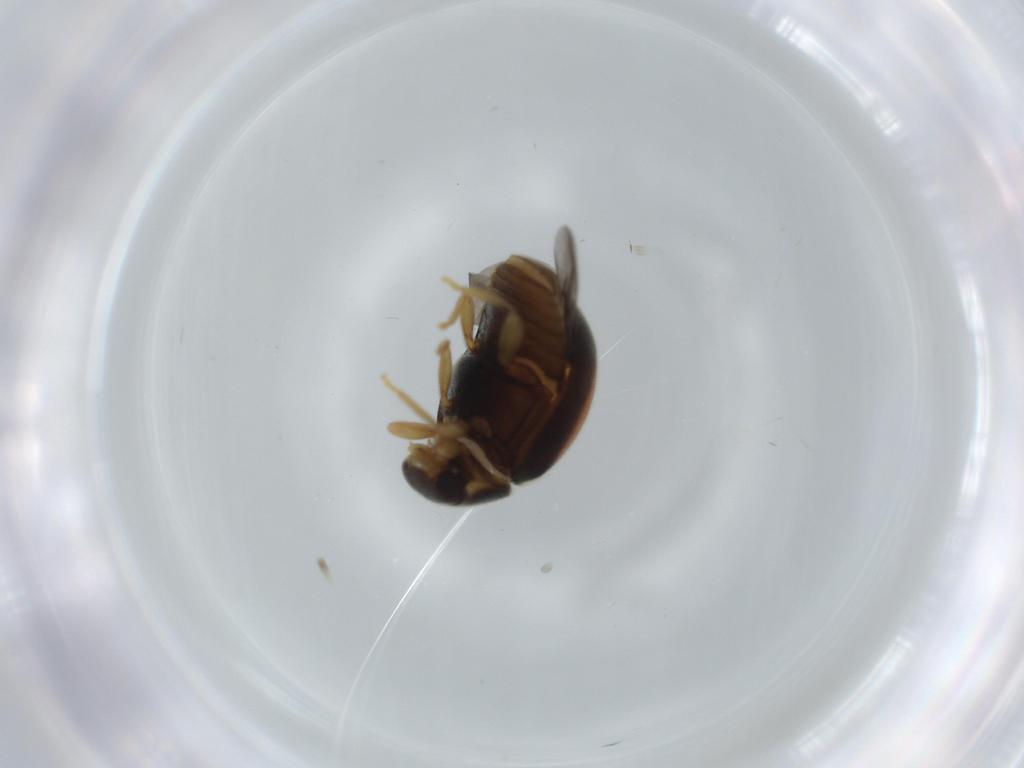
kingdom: Animalia
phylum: Arthropoda
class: Insecta
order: Coleoptera
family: Coccinellidae
